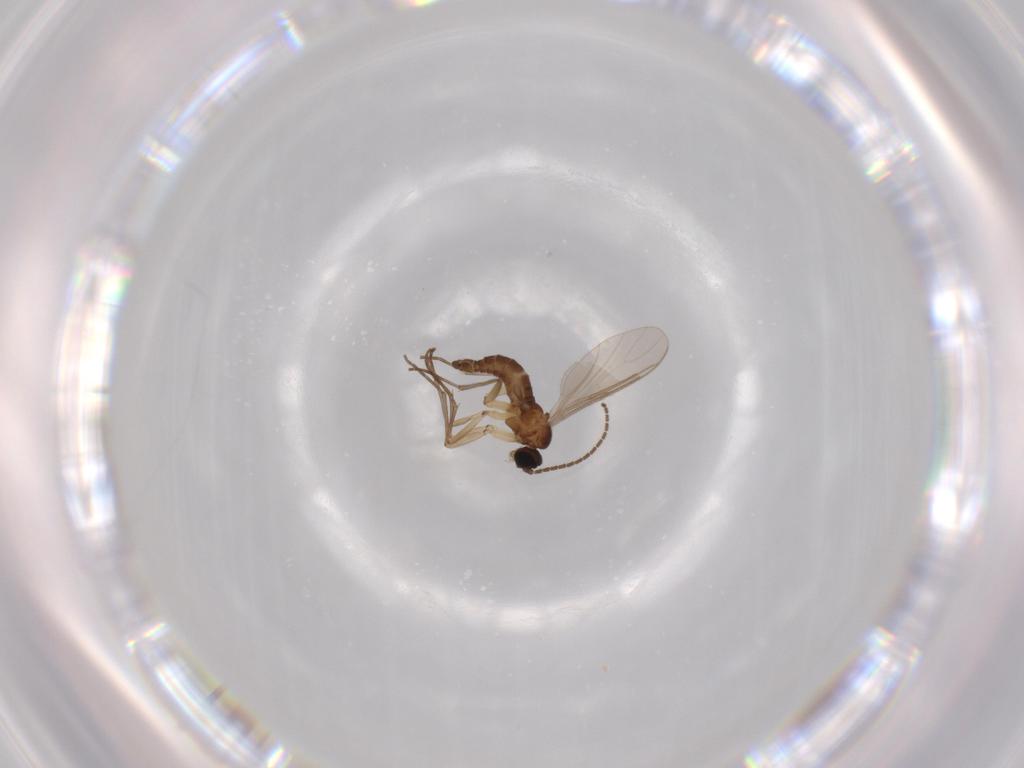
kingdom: Animalia
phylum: Arthropoda
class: Insecta
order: Diptera
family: Sciaridae
